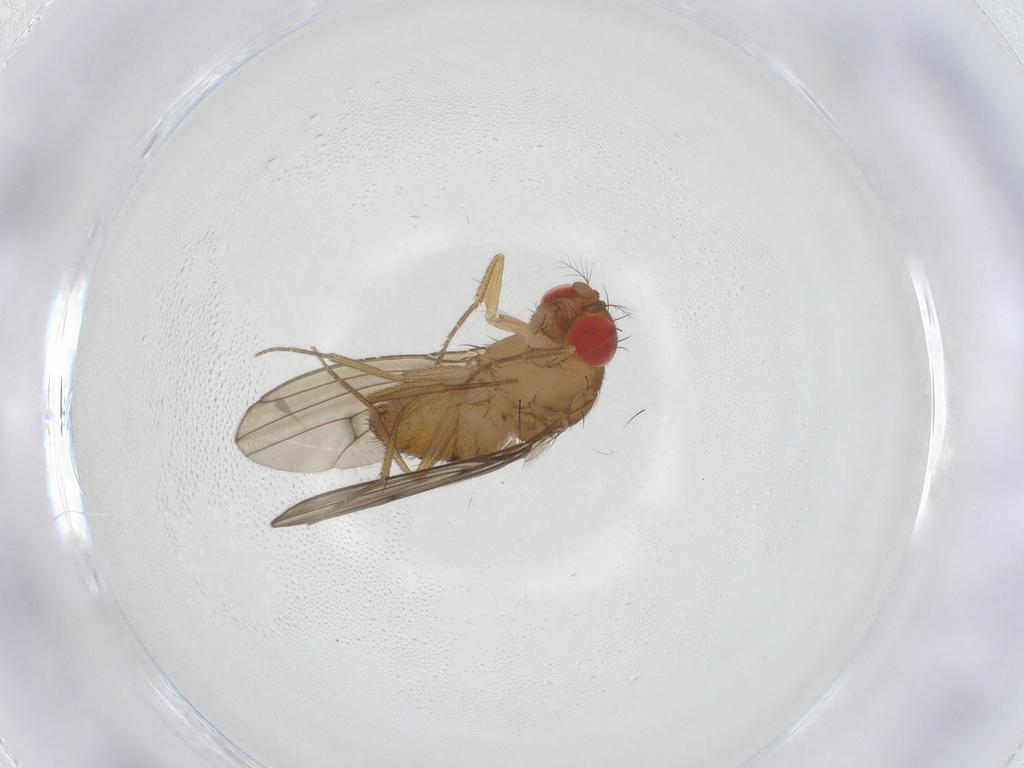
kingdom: Animalia
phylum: Arthropoda
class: Insecta
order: Diptera
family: Drosophilidae
